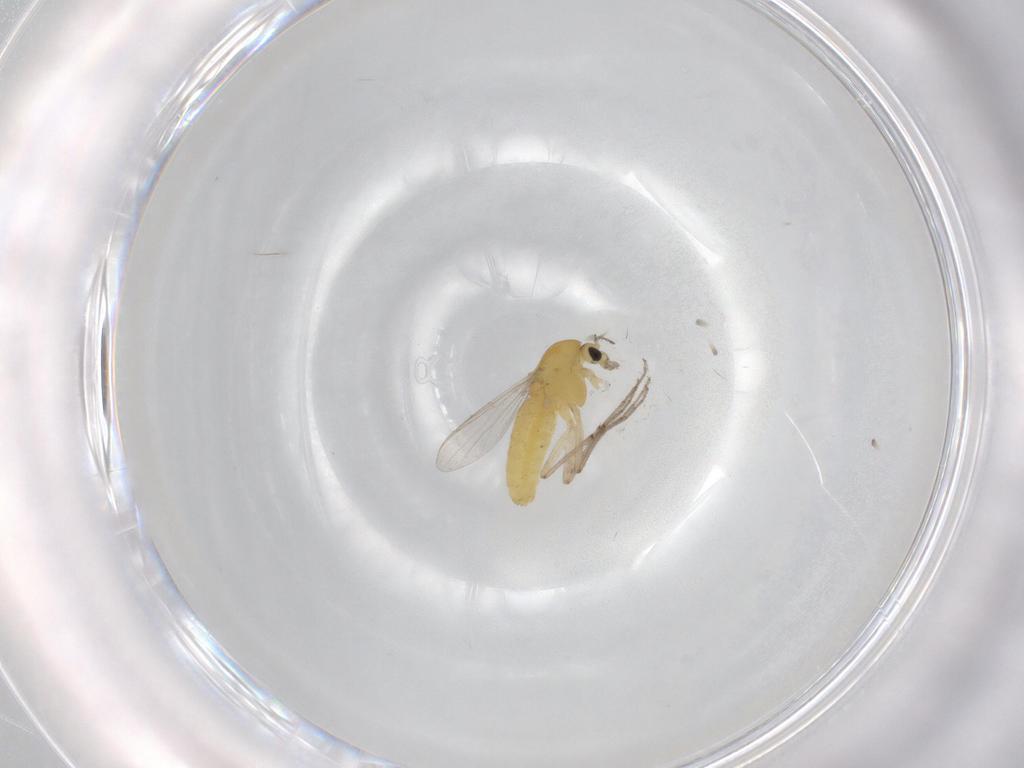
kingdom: Animalia
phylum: Arthropoda
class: Insecta
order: Diptera
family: Chironomidae
